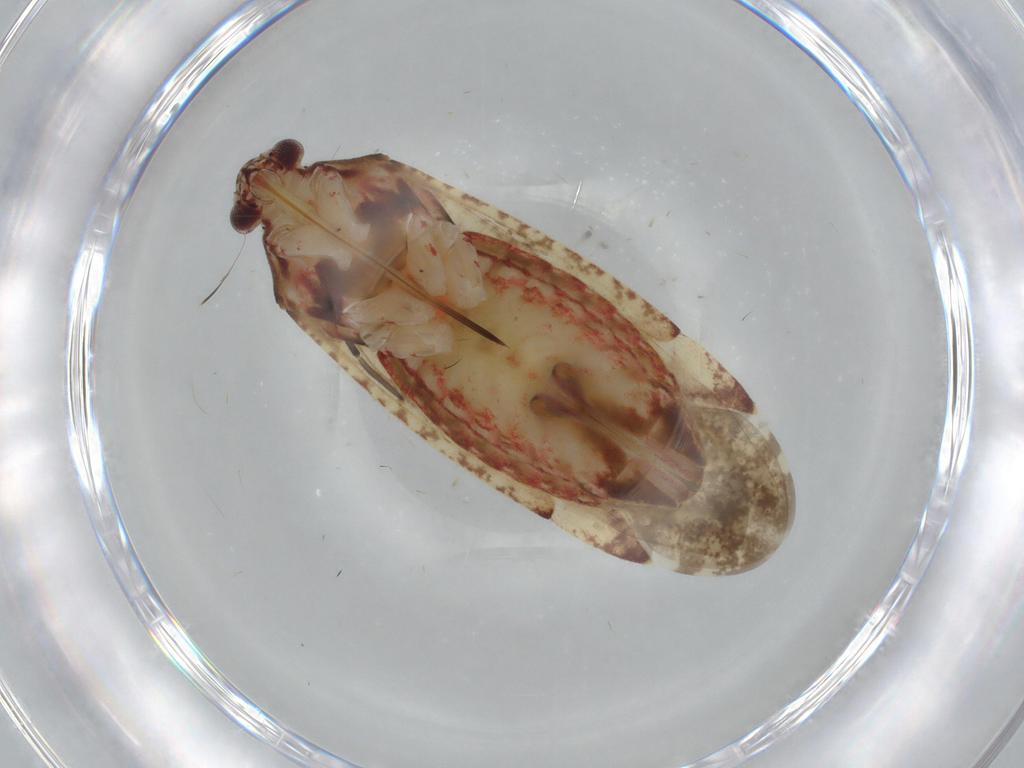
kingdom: Animalia
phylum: Arthropoda
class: Insecta
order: Hemiptera
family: Miridae
